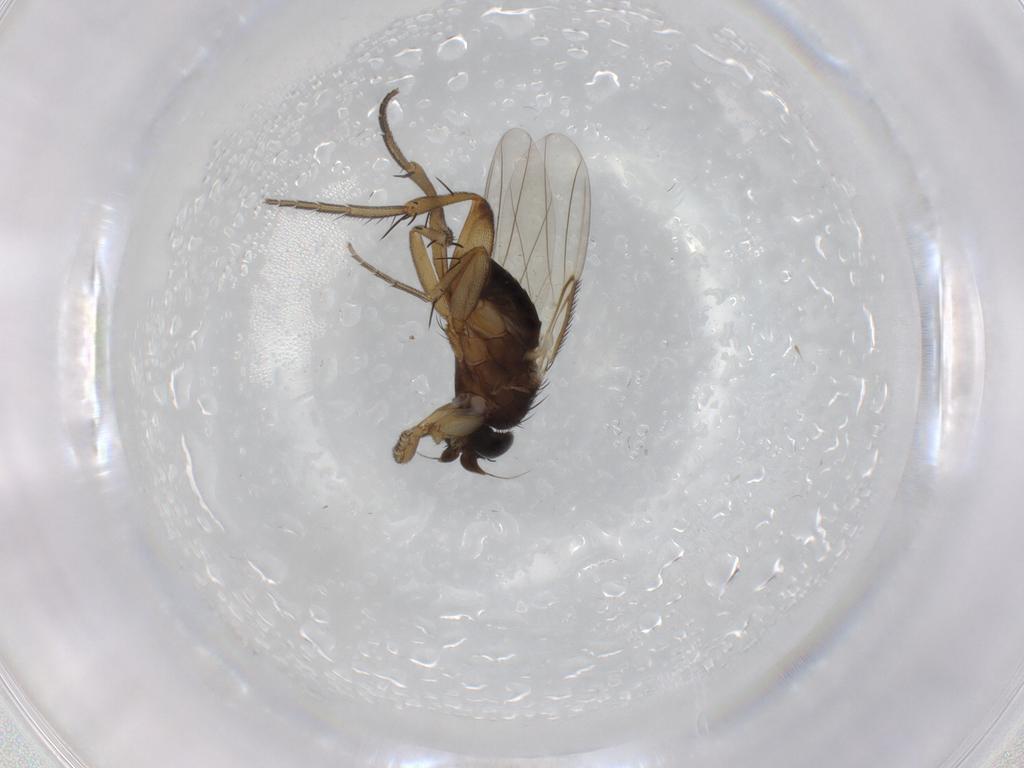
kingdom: Animalia
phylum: Arthropoda
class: Insecta
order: Diptera
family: Phoridae
